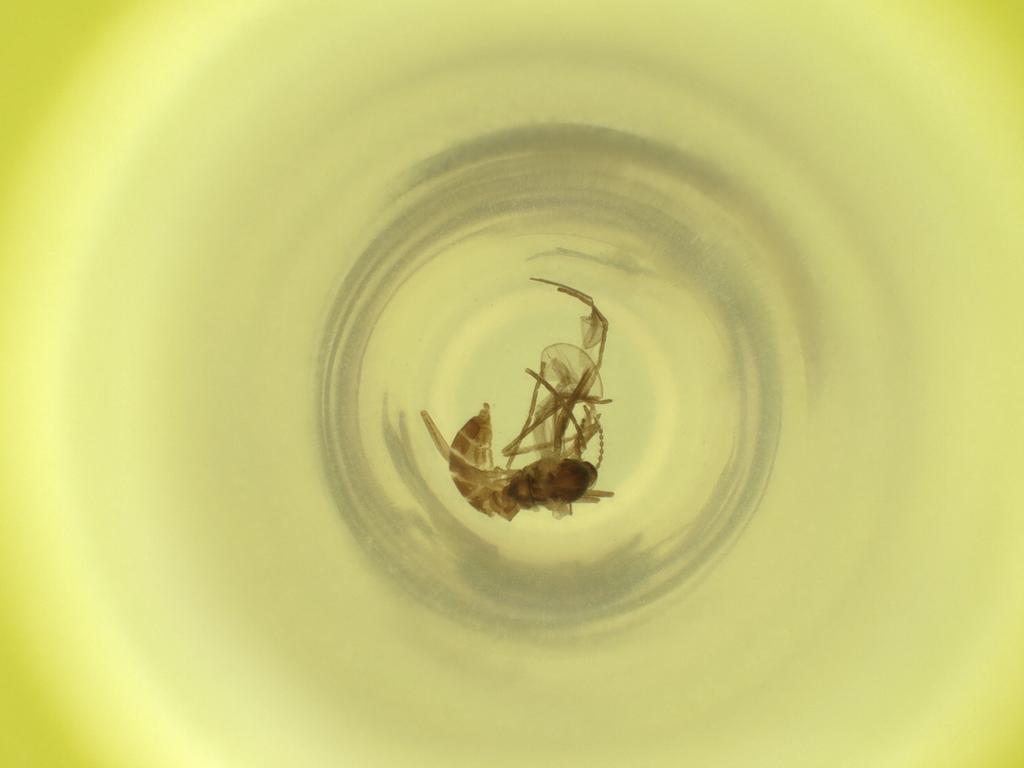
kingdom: Animalia
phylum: Arthropoda
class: Insecta
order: Diptera
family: Cecidomyiidae
